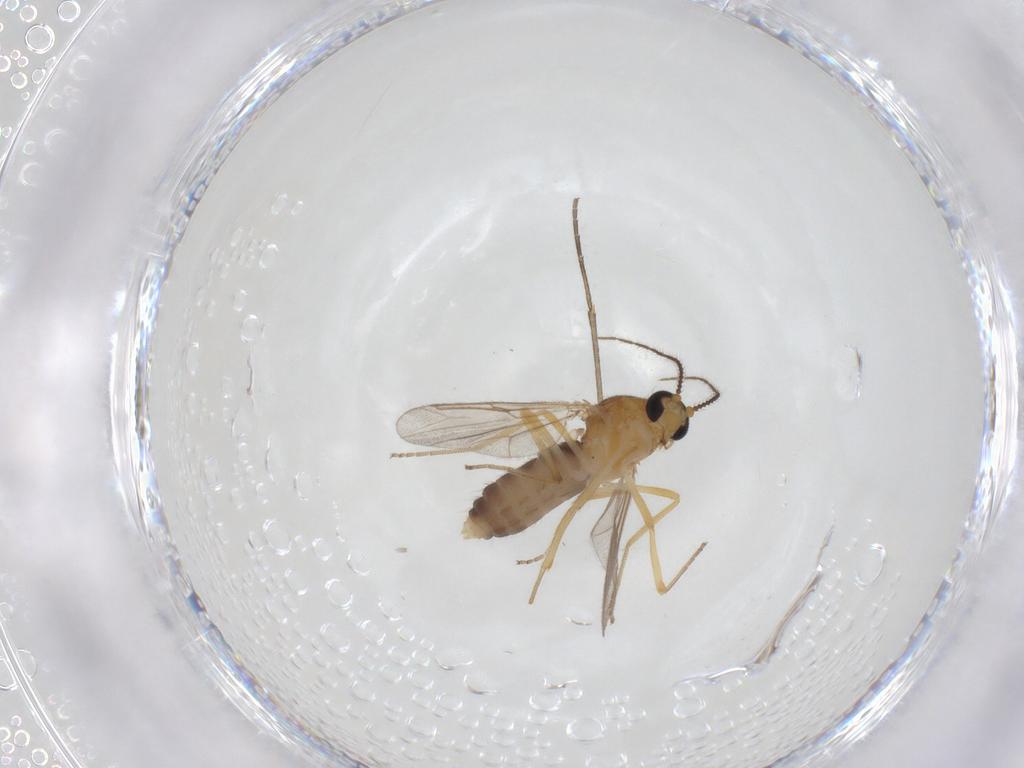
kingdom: Animalia
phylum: Arthropoda
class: Insecta
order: Diptera
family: Ceratopogonidae
